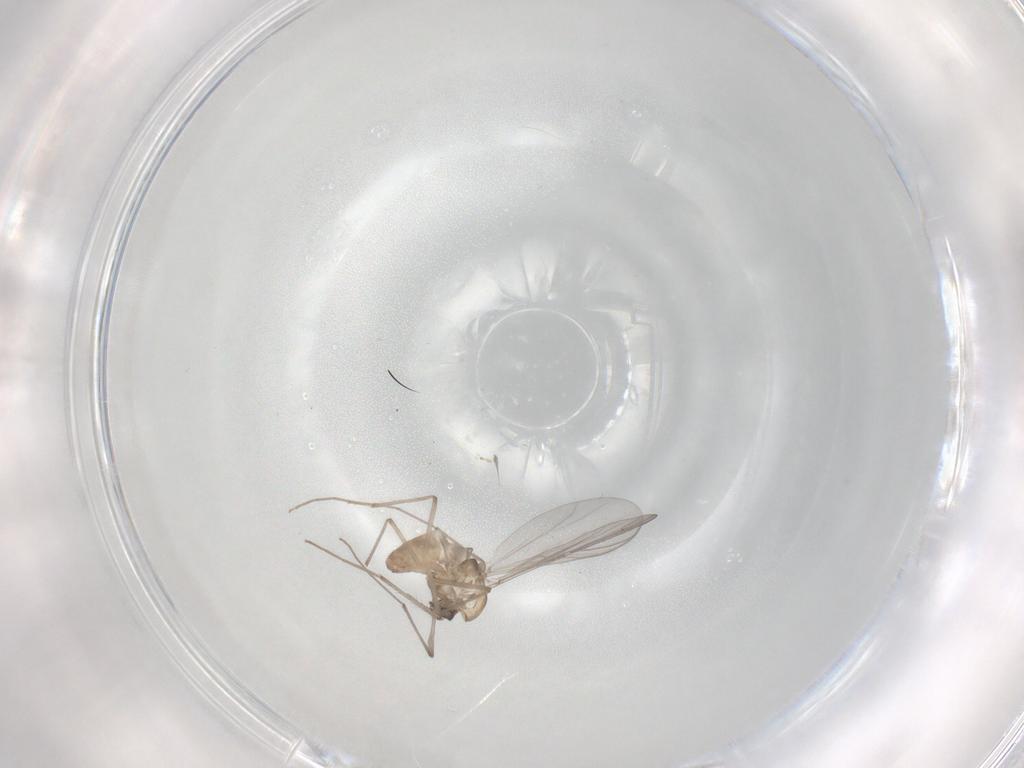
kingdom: Animalia
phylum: Arthropoda
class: Insecta
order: Diptera
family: Chironomidae
